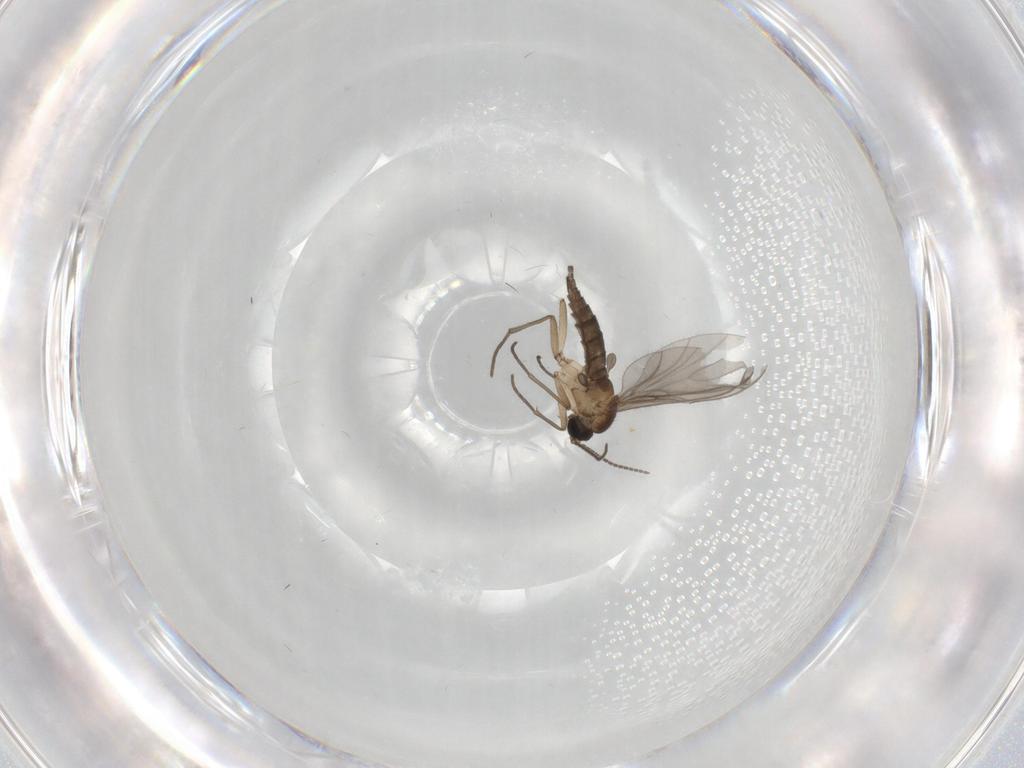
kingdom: Animalia
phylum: Arthropoda
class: Insecta
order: Diptera
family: Sciaridae
